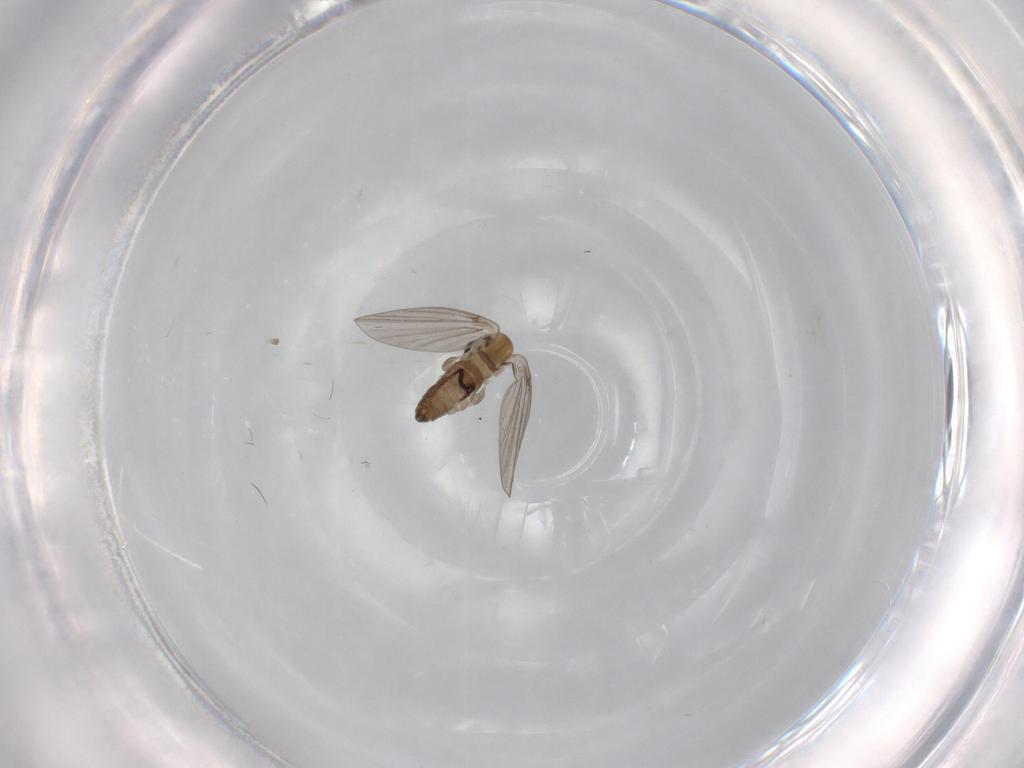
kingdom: Animalia
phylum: Arthropoda
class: Insecta
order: Diptera
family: Ceratopogonidae
